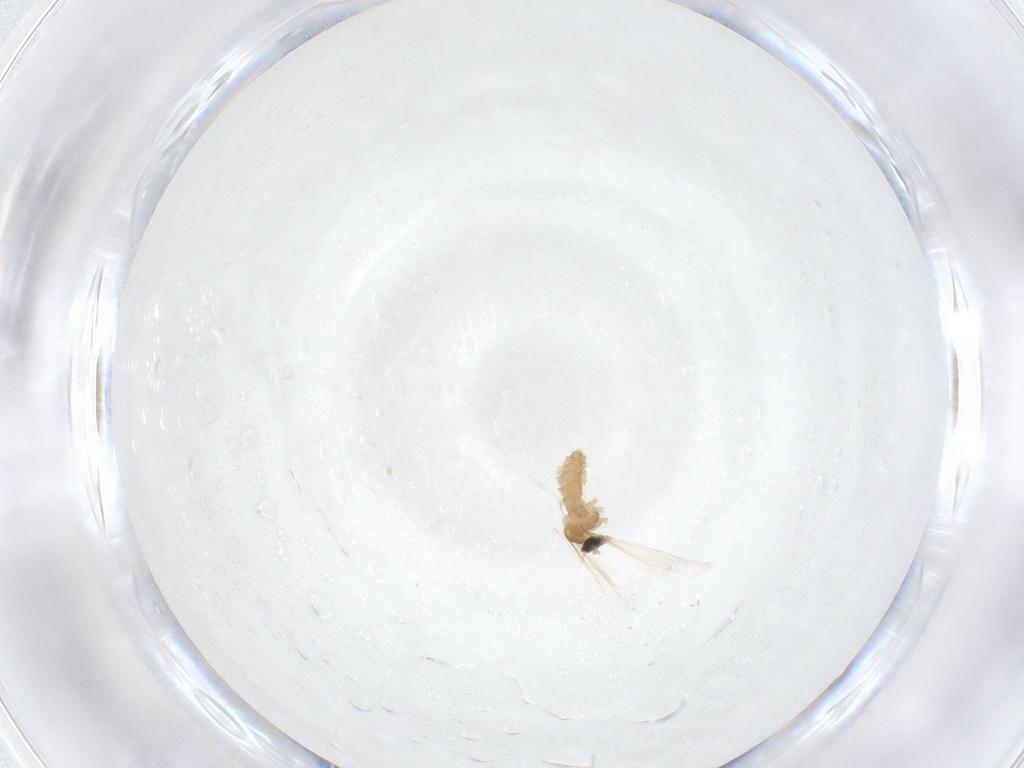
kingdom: Animalia
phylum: Arthropoda
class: Insecta
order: Diptera
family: Cecidomyiidae
